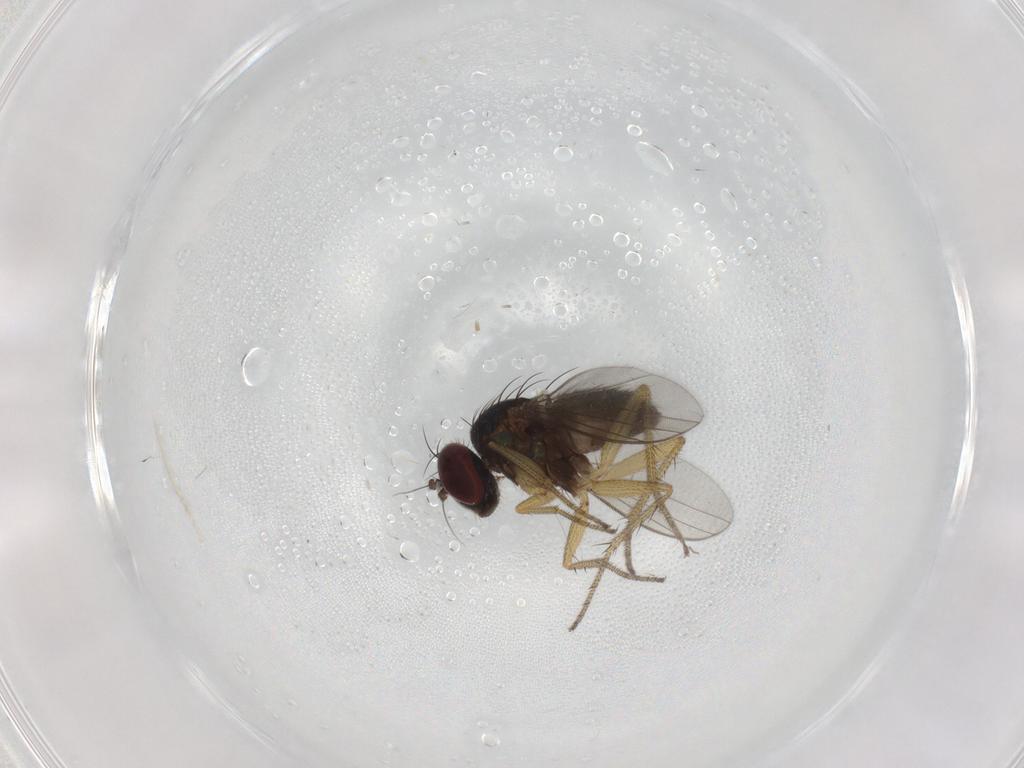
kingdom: Animalia
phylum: Arthropoda
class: Insecta
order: Diptera
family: Dolichopodidae
